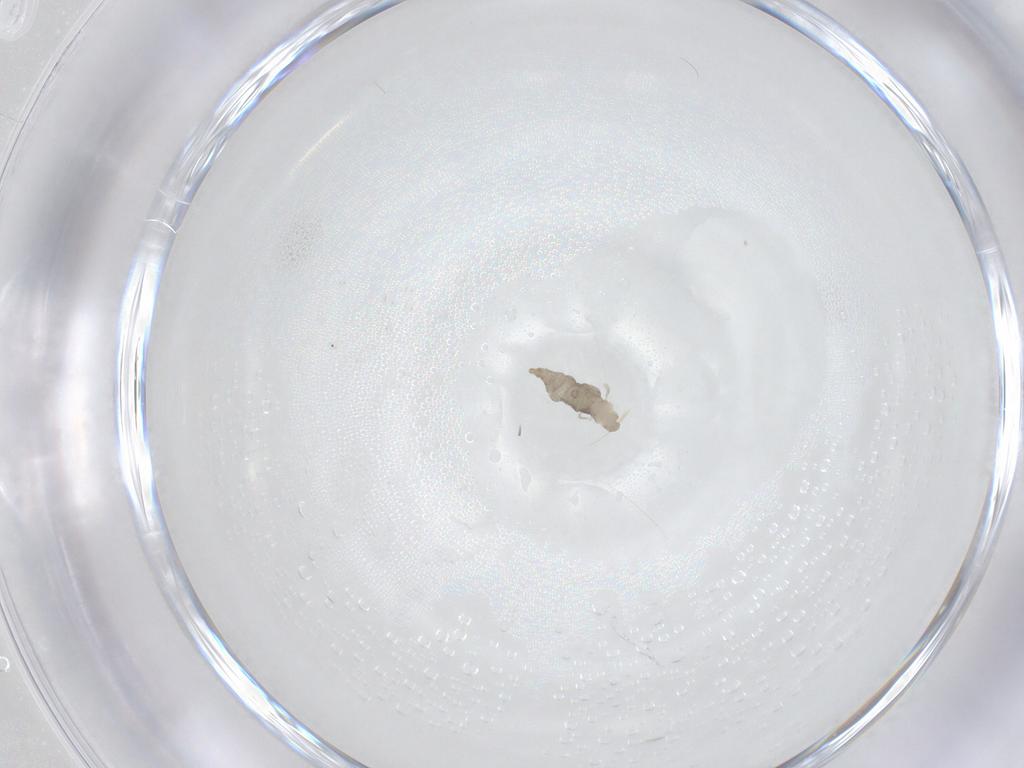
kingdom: Animalia
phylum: Arthropoda
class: Insecta
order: Diptera
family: Cecidomyiidae
